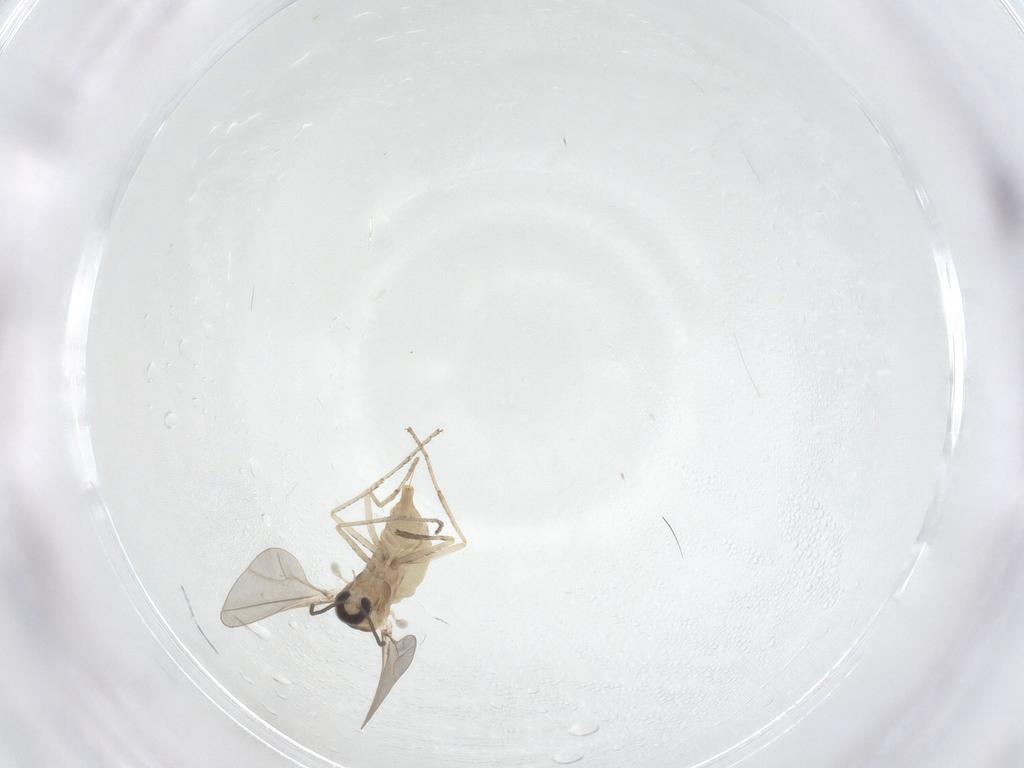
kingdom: Animalia
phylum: Arthropoda
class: Insecta
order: Diptera
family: Cecidomyiidae
